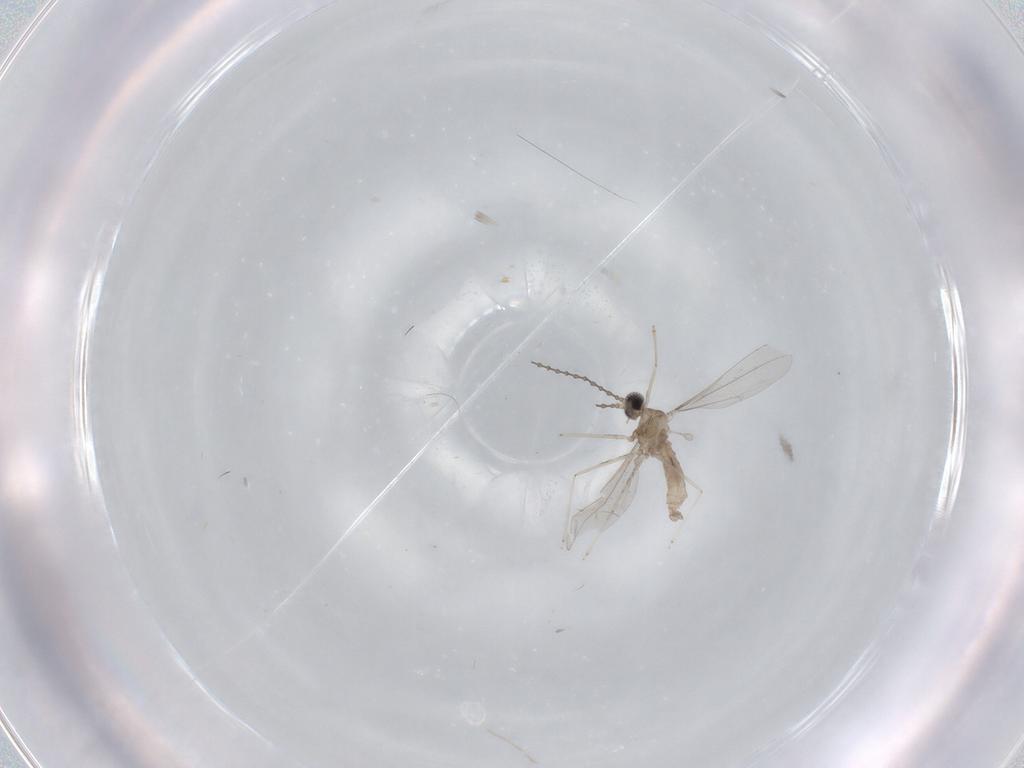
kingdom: Animalia
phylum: Arthropoda
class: Insecta
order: Diptera
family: Cecidomyiidae
